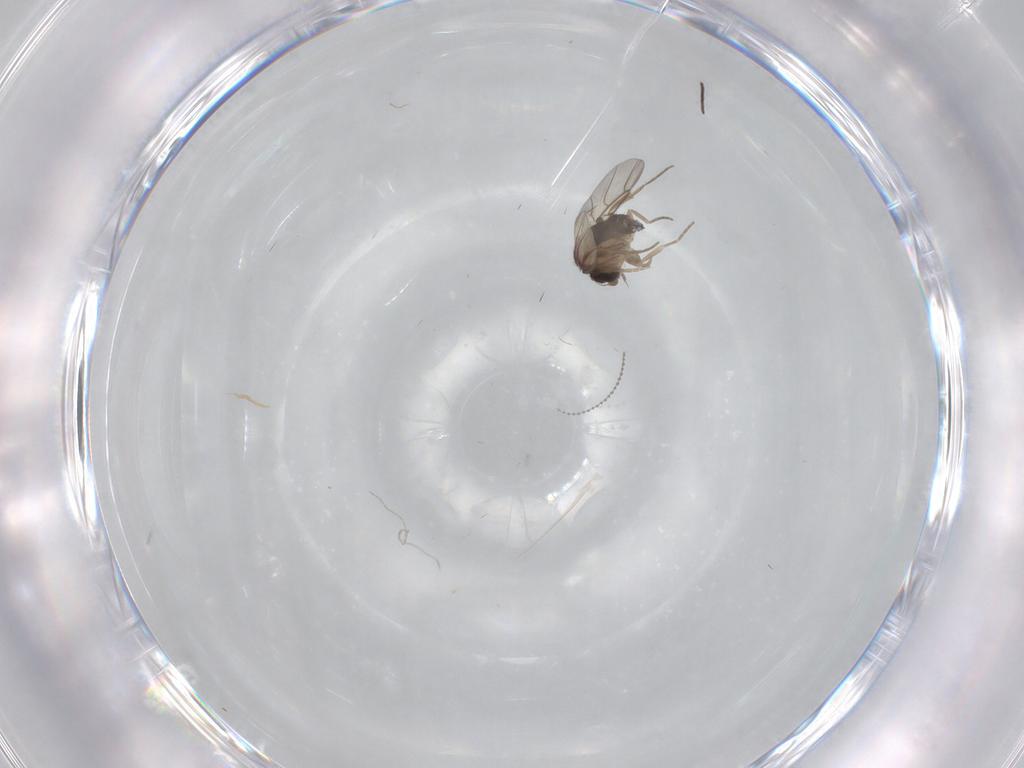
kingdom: Animalia
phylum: Arthropoda
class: Insecta
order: Diptera
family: Phoridae
